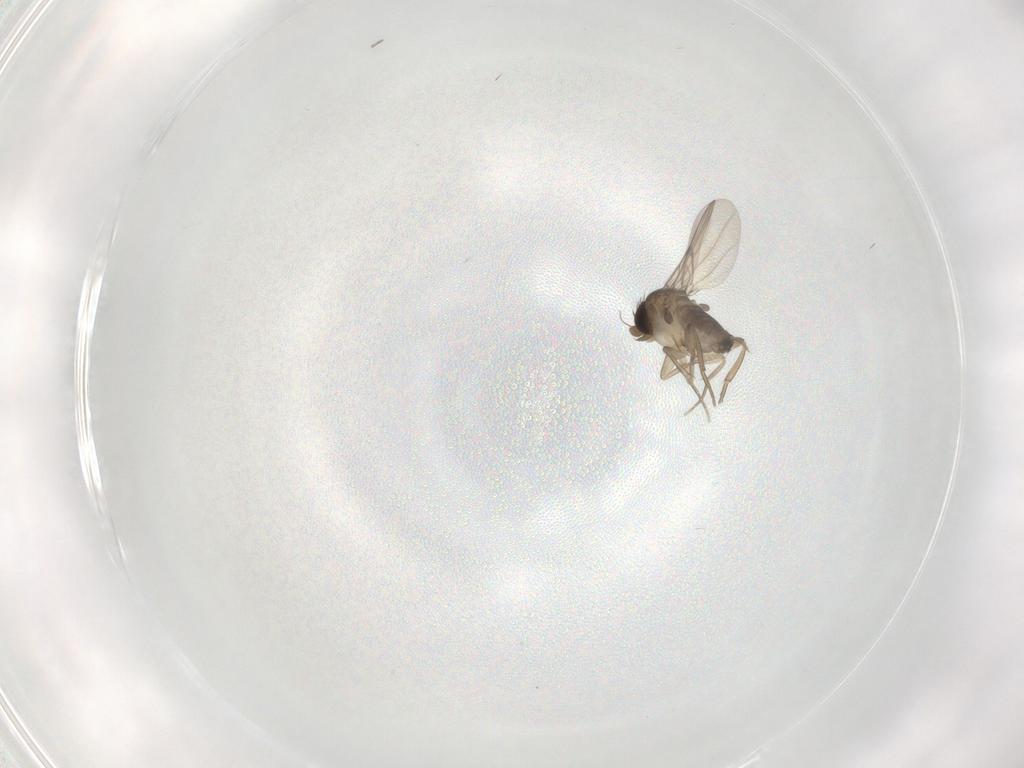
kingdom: Animalia
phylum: Arthropoda
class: Insecta
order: Diptera
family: Phoridae
